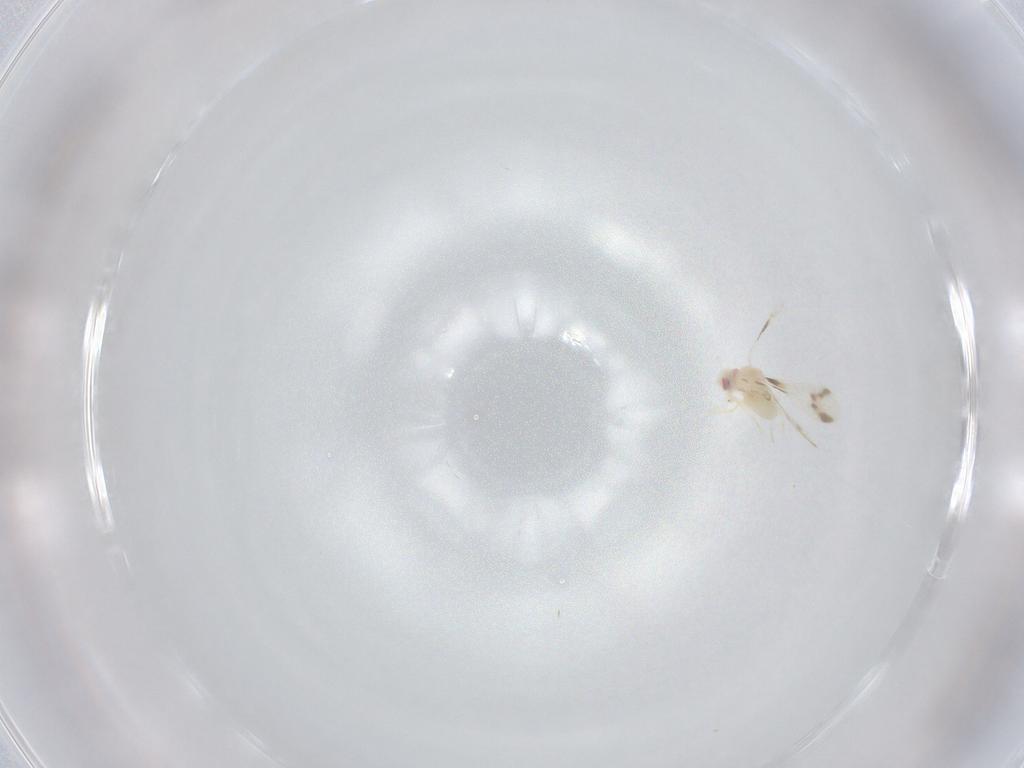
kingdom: Animalia
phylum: Arthropoda
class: Insecta
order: Hemiptera
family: Aleyrodidae
